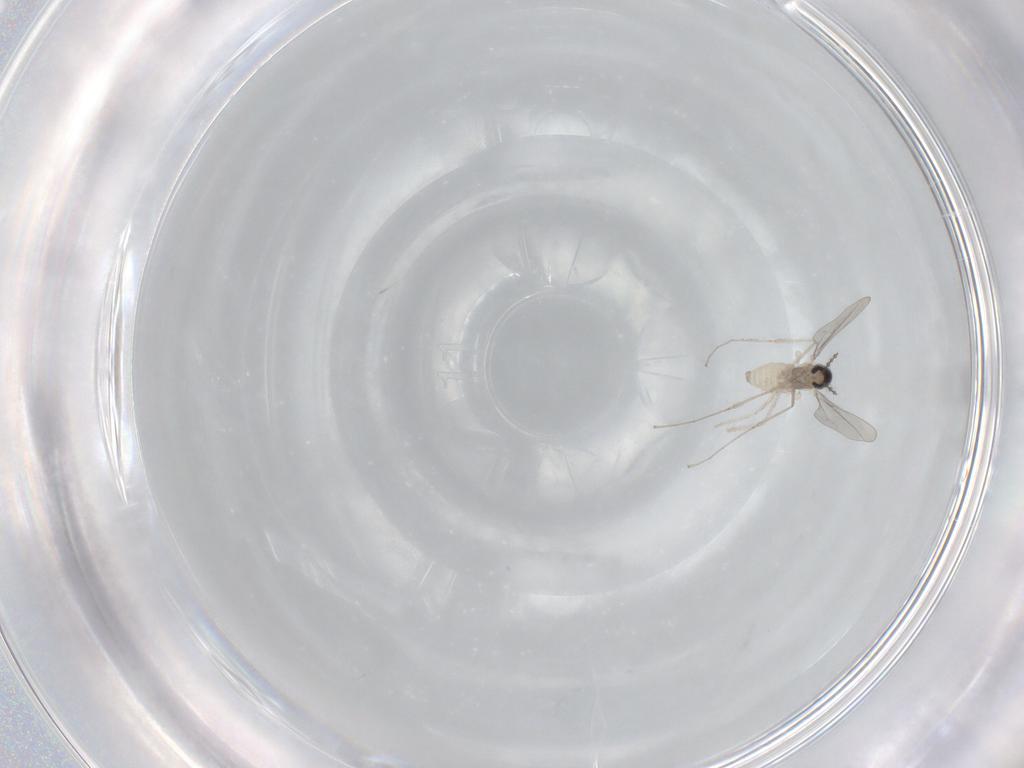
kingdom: Animalia
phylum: Arthropoda
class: Insecta
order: Diptera
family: Cecidomyiidae
